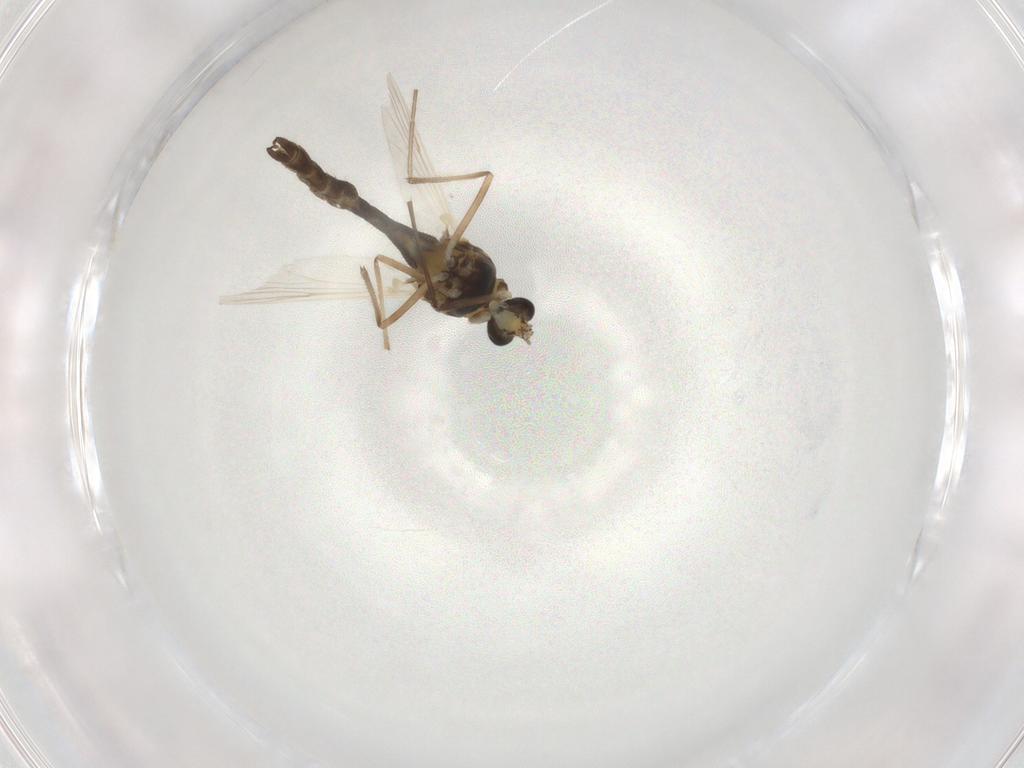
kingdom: Animalia
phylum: Arthropoda
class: Insecta
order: Diptera
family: Chironomidae
